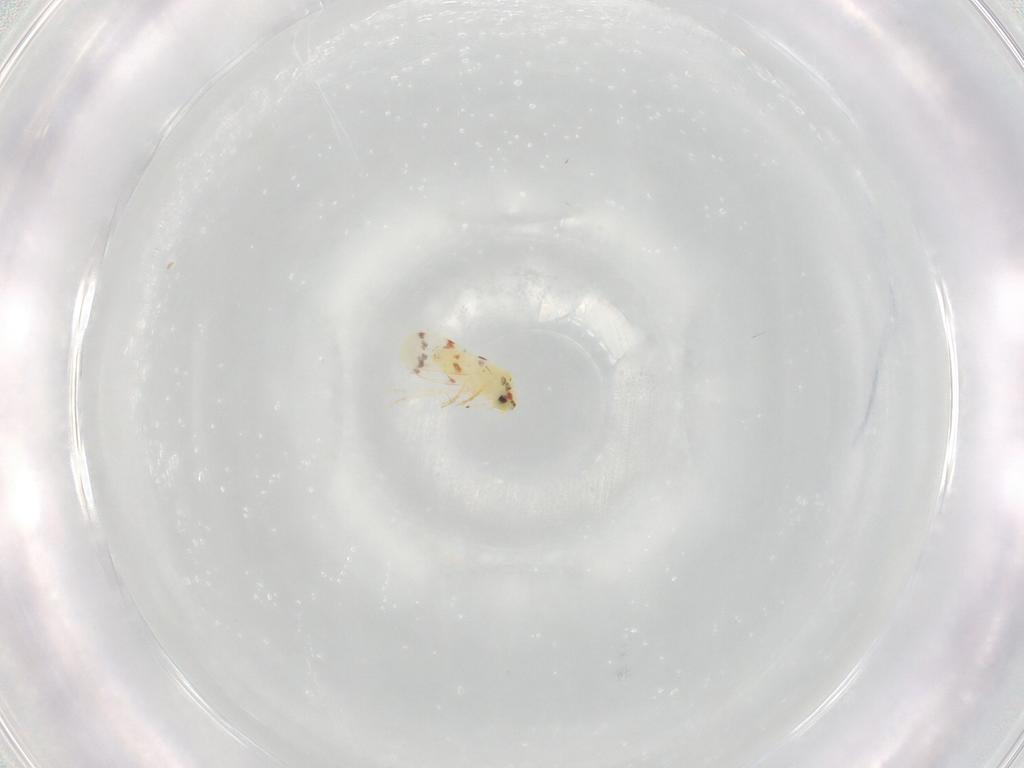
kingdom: Animalia
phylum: Arthropoda
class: Insecta
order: Hemiptera
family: Aleyrodidae
